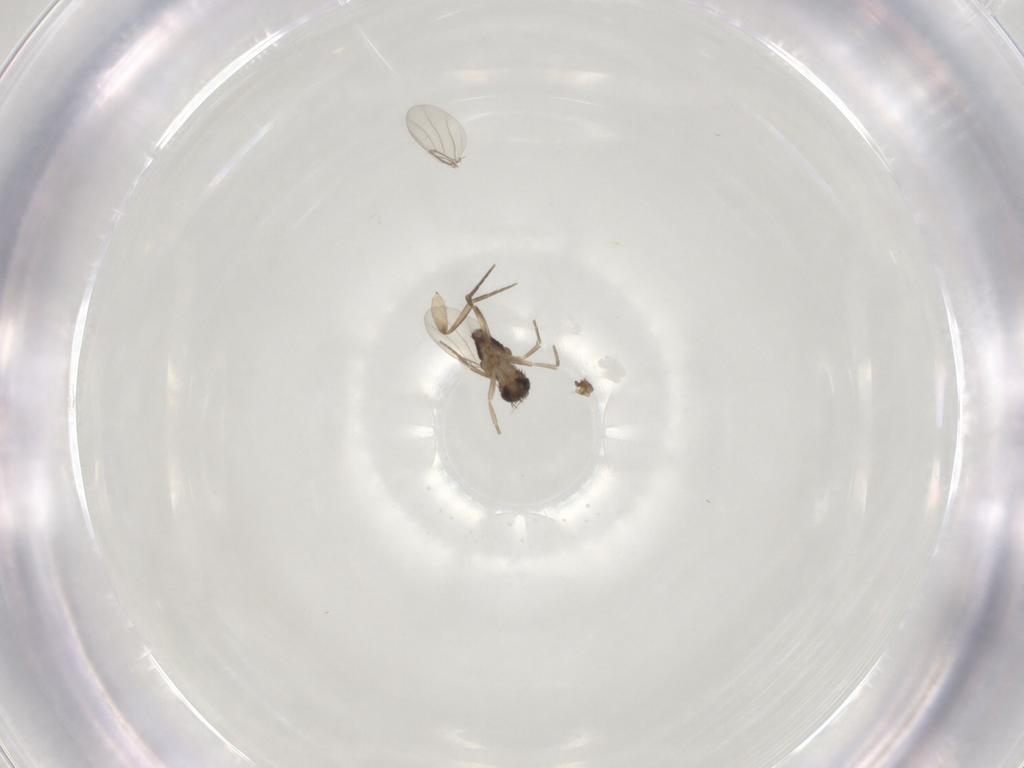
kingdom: Animalia
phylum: Arthropoda
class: Insecta
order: Diptera
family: Phoridae
